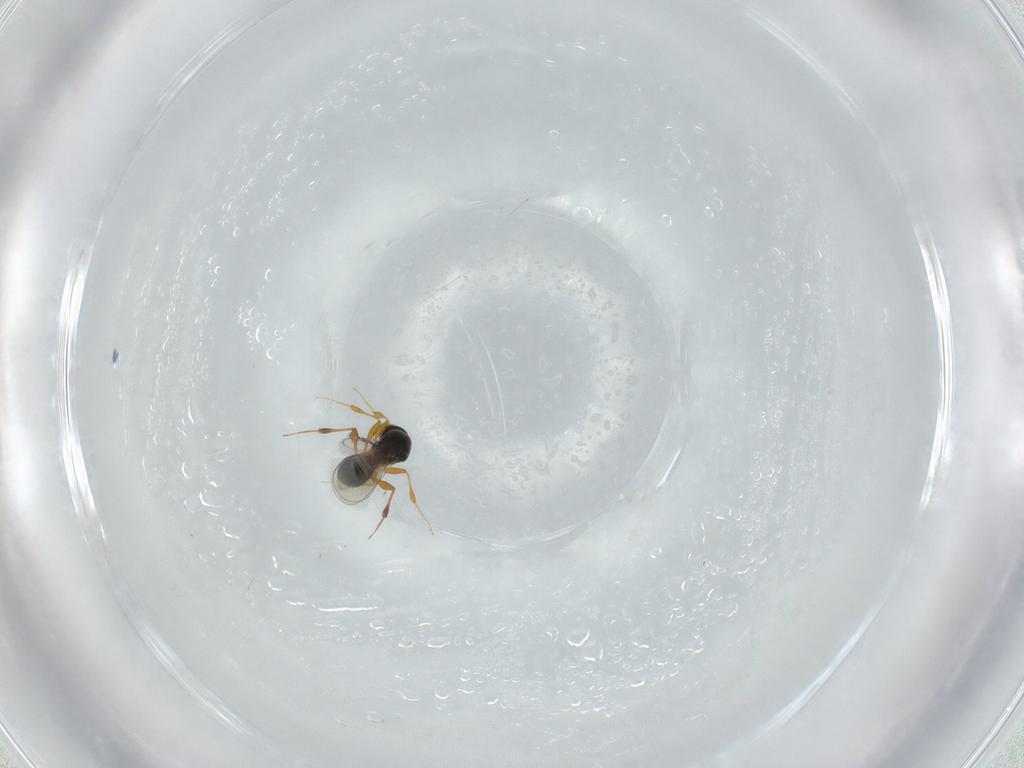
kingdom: Animalia
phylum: Arthropoda
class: Insecta
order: Hymenoptera
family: Platygastridae
